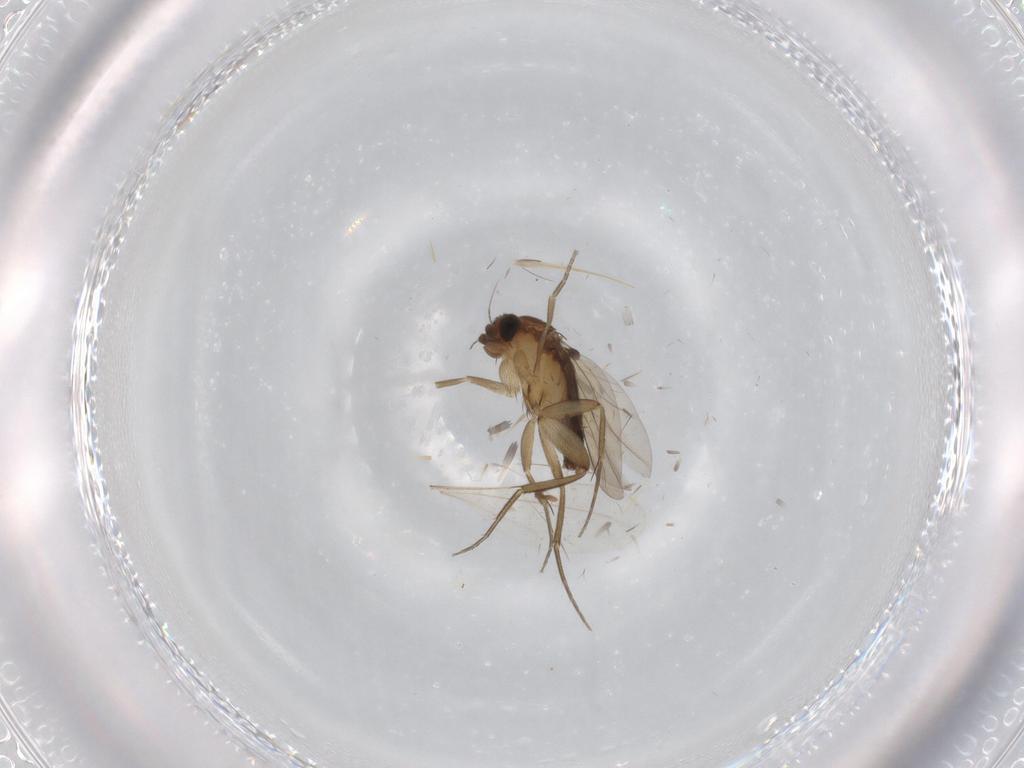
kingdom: Animalia
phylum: Arthropoda
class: Insecta
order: Diptera
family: Phoridae
